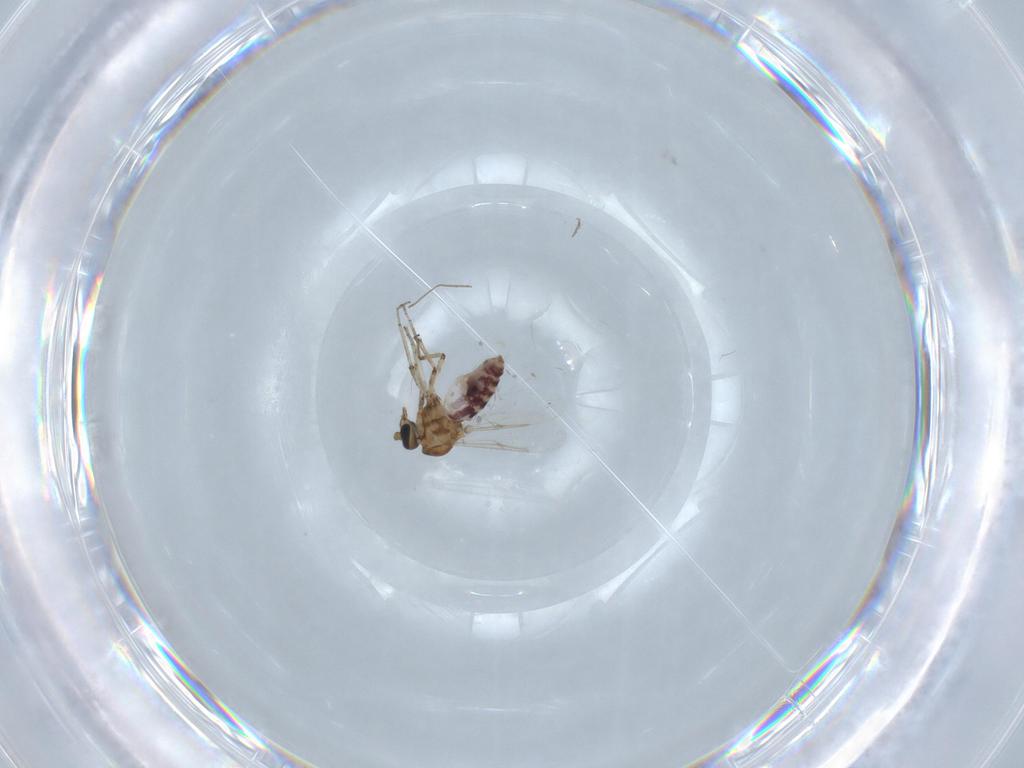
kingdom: Animalia
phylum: Arthropoda
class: Insecta
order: Diptera
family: Ceratopogonidae
